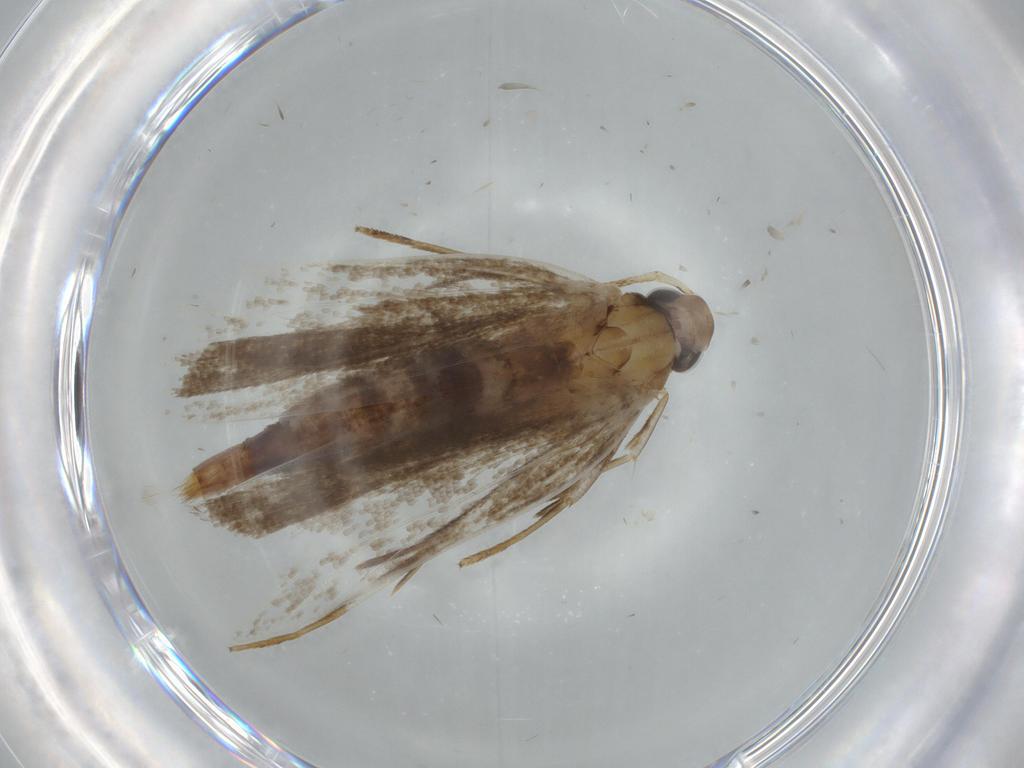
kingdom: Animalia
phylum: Arthropoda
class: Insecta
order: Lepidoptera
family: Gelechiidae
